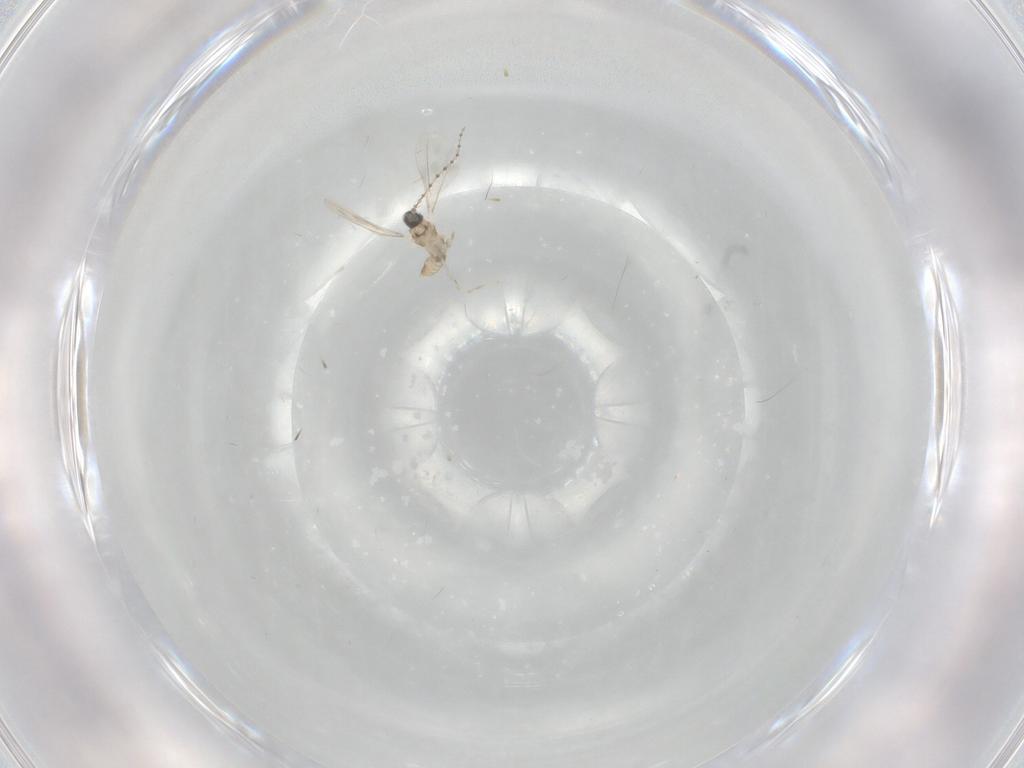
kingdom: Animalia
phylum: Arthropoda
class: Insecta
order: Diptera
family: Cecidomyiidae
